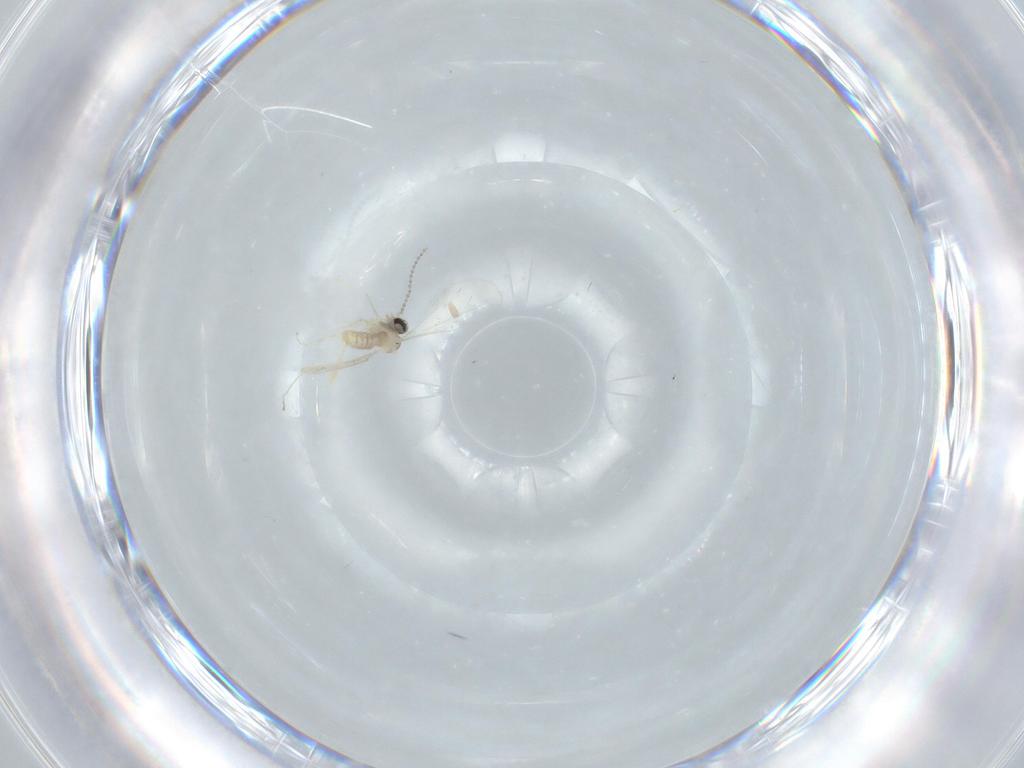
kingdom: Animalia
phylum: Arthropoda
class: Insecta
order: Diptera
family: Cecidomyiidae
